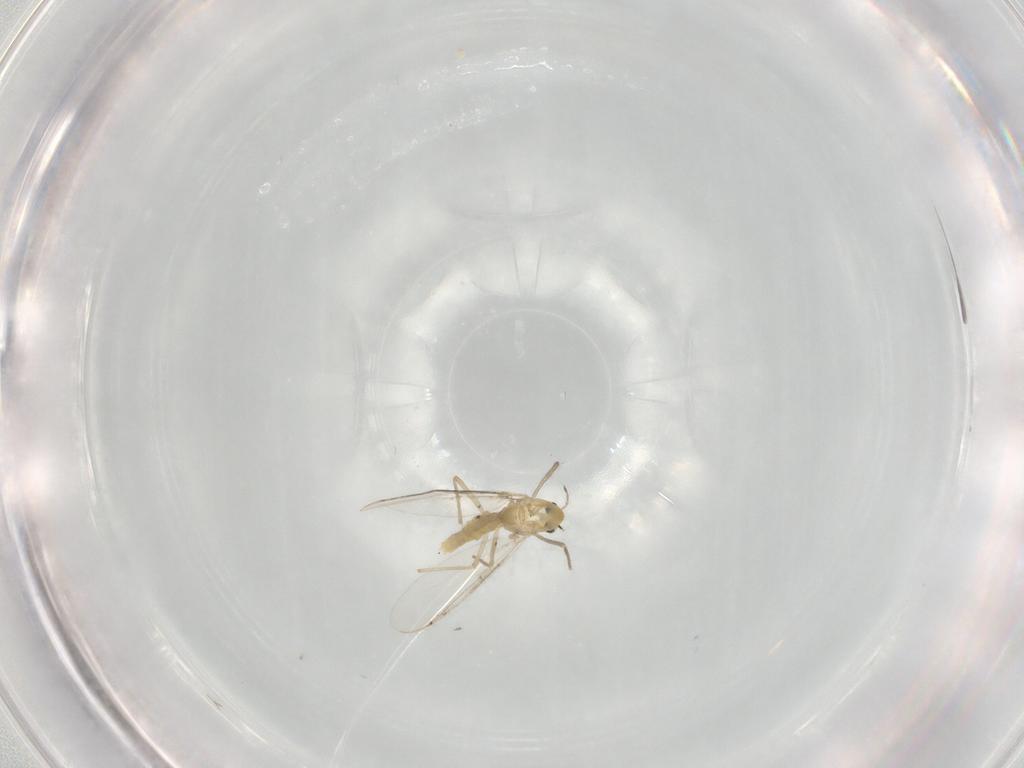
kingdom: Animalia
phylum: Arthropoda
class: Insecta
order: Diptera
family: Chironomidae
